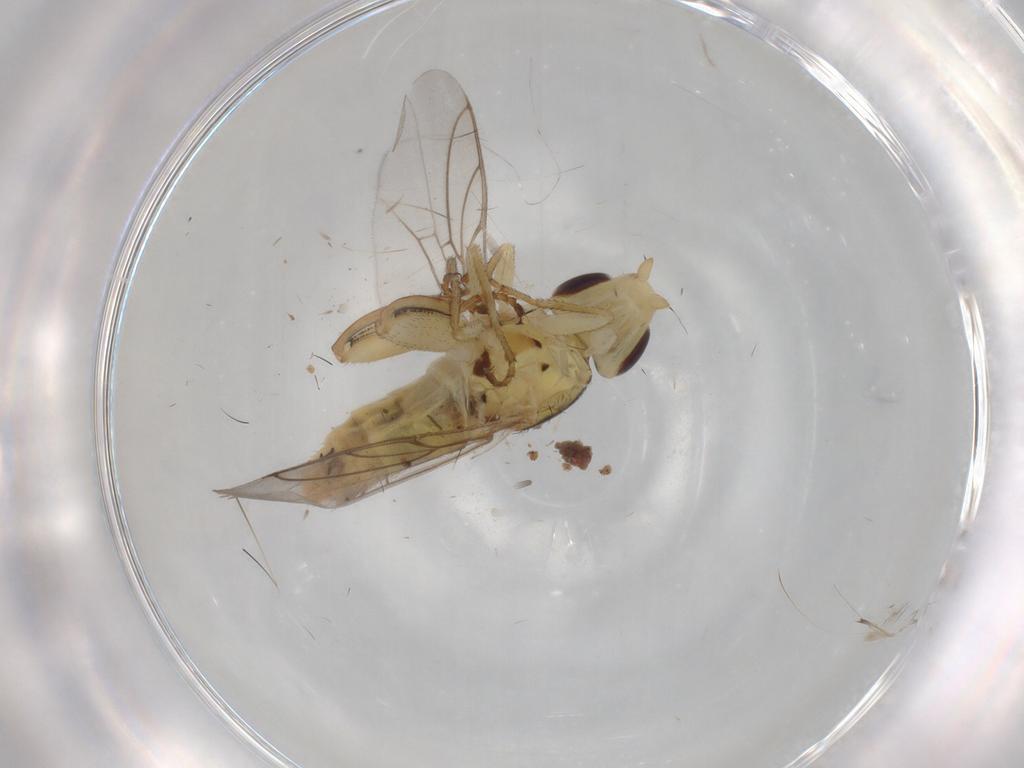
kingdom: Animalia
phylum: Arthropoda
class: Insecta
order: Diptera
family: Chloropidae
